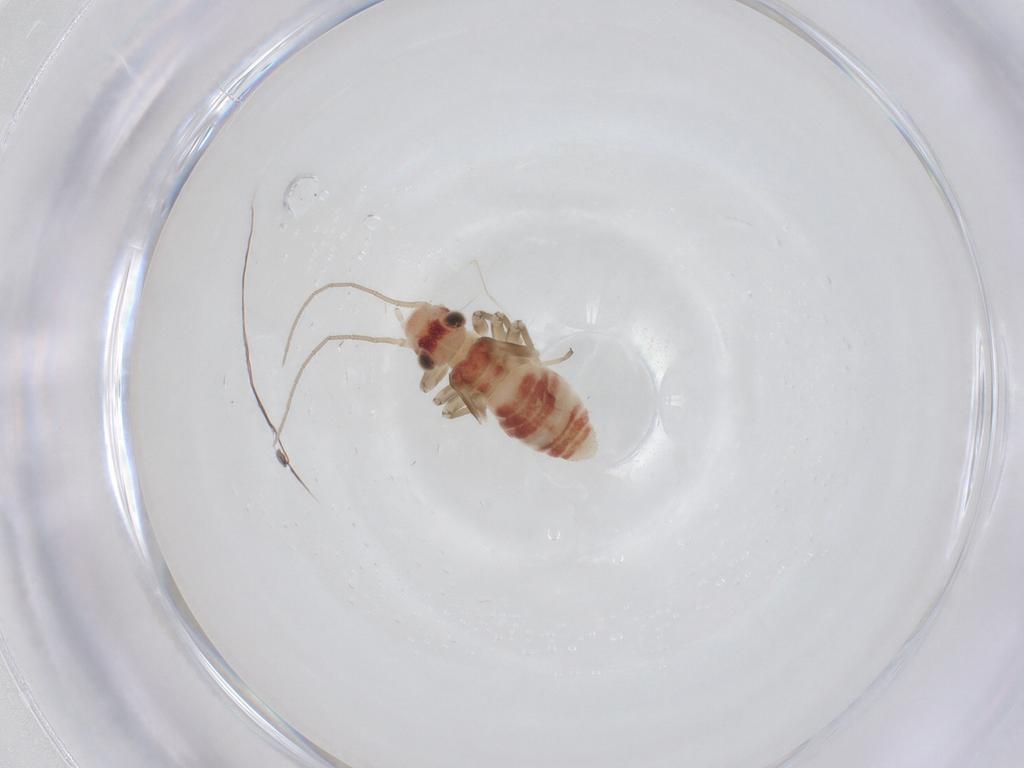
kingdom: Animalia
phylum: Arthropoda
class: Insecta
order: Psocodea
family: Caeciliusidae
